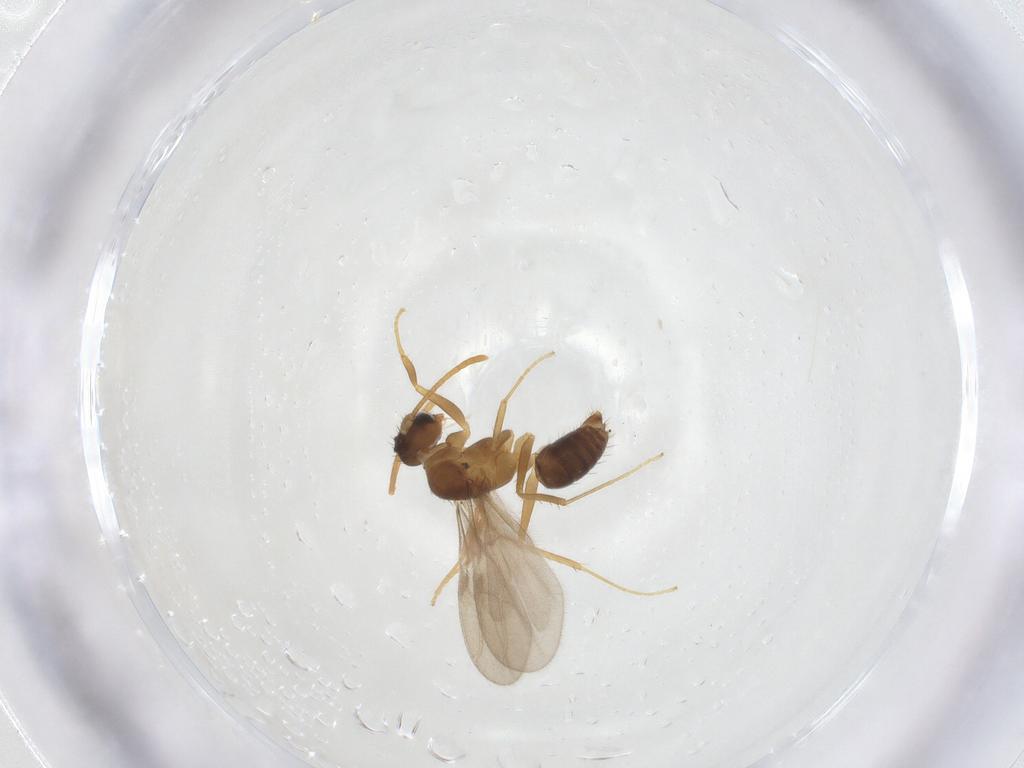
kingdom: Animalia
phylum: Arthropoda
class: Insecta
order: Hymenoptera
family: Formicidae
